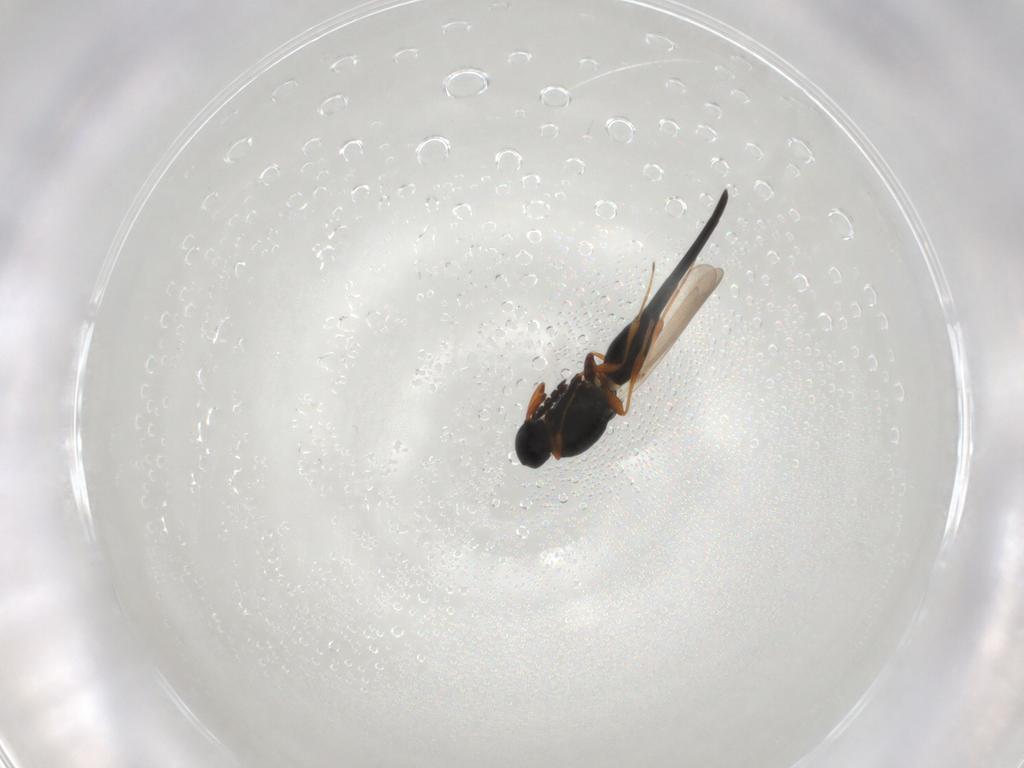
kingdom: Animalia
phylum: Arthropoda
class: Insecta
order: Hymenoptera
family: Platygastridae
